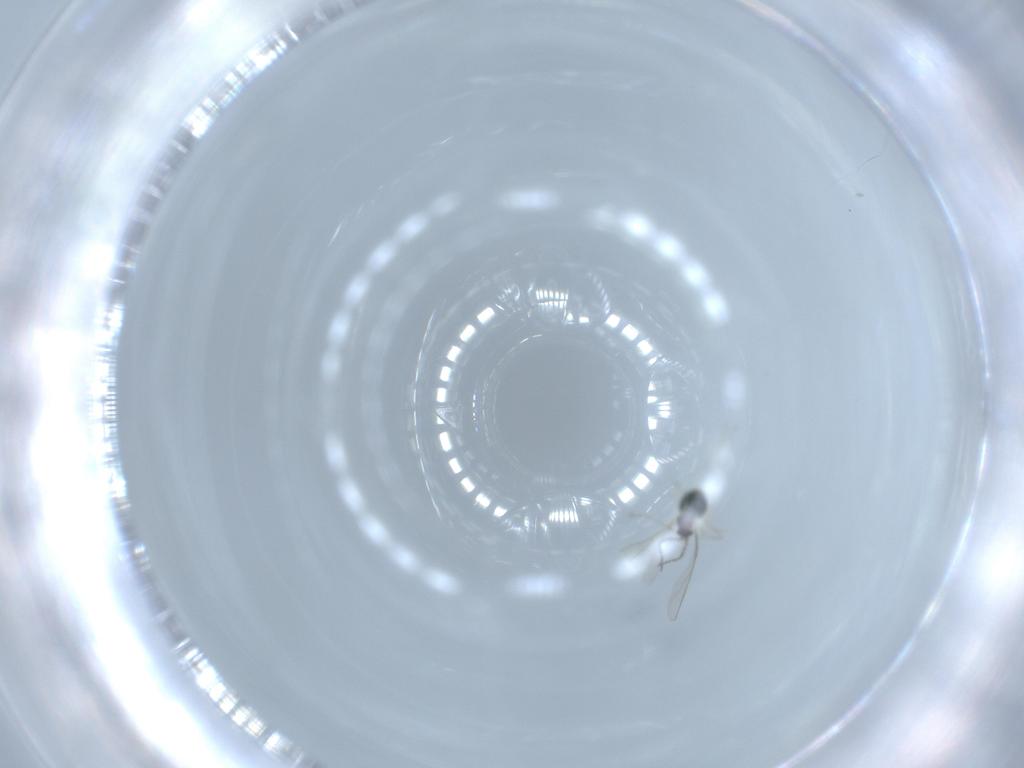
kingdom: Animalia
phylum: Arthropoda
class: Insecta
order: Diptera
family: Cecidomyiidae
